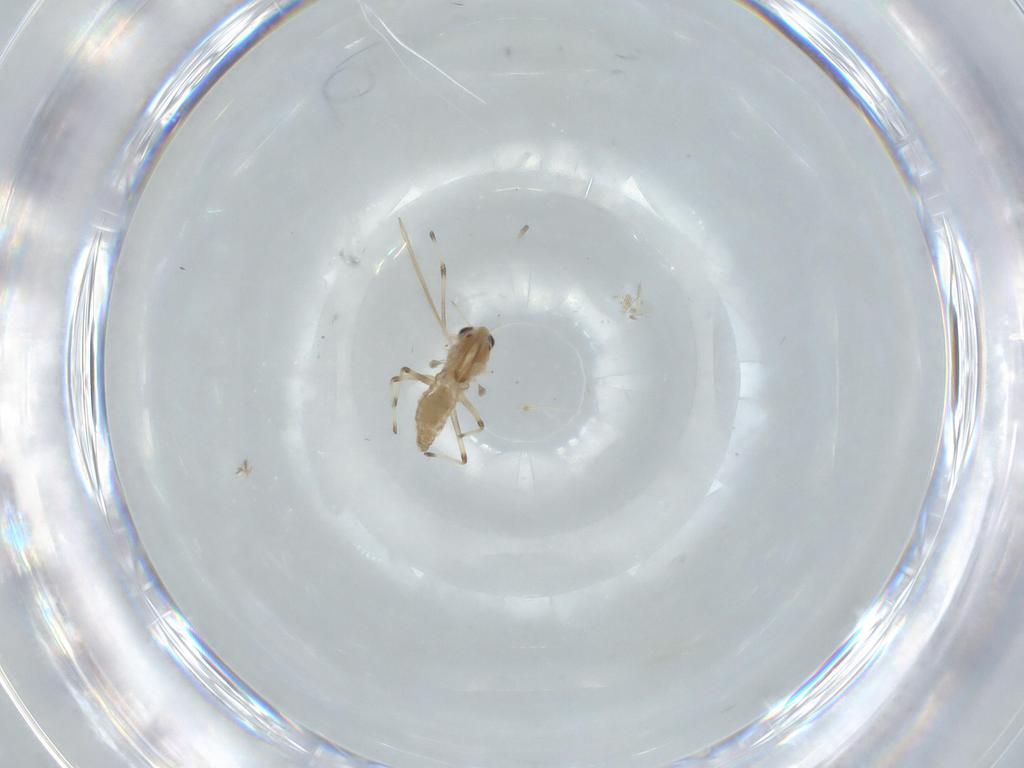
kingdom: Animalia
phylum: Arthropoda
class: Insecta
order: Diptera
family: Chironomidae
